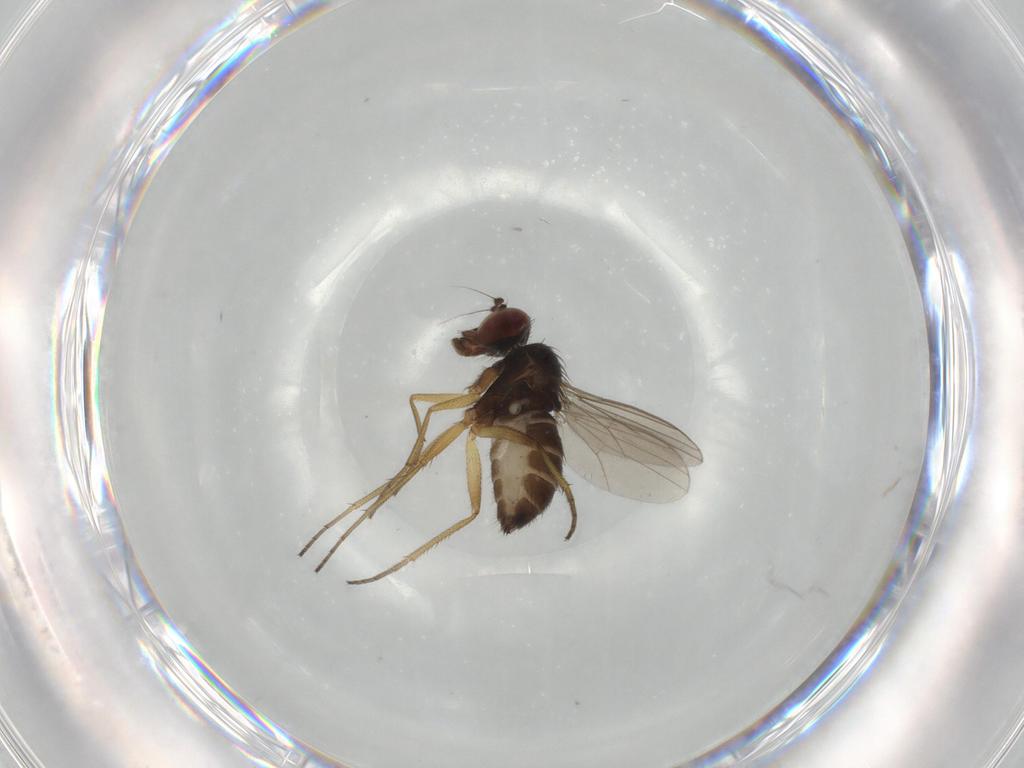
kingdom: Animalia
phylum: Arthropoda
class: Insecta
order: Diptera
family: Dolichopodidae
